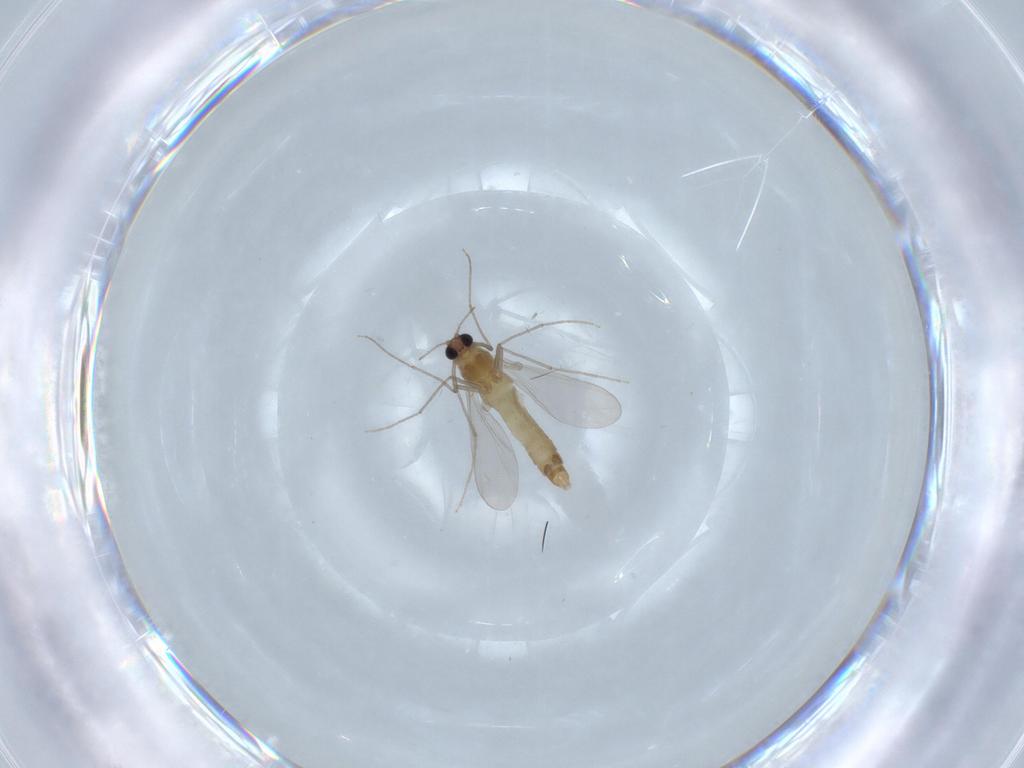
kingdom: Animalia
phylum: Arthropoda
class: Insecta
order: Diptera
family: Chironomidae
